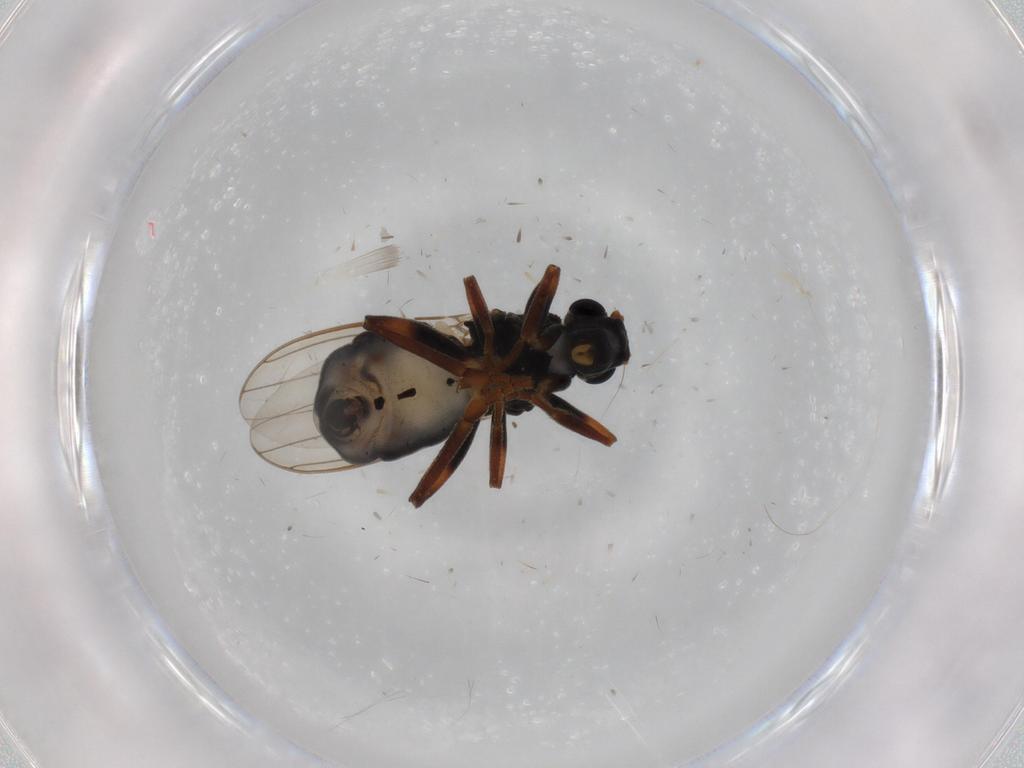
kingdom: Animalia
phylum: Arthropoda
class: Insecta
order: Diptera
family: Sphaeroceridae
